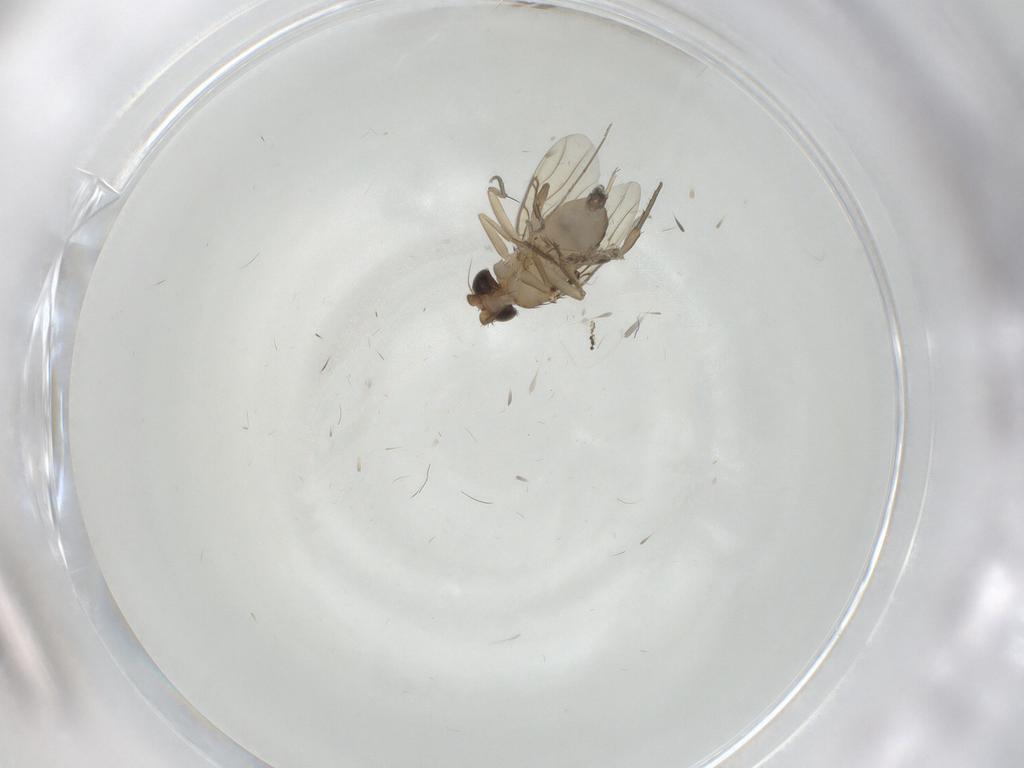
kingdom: Animalia
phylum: Arthropoda
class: Insecta
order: Diptera
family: Phoridae
